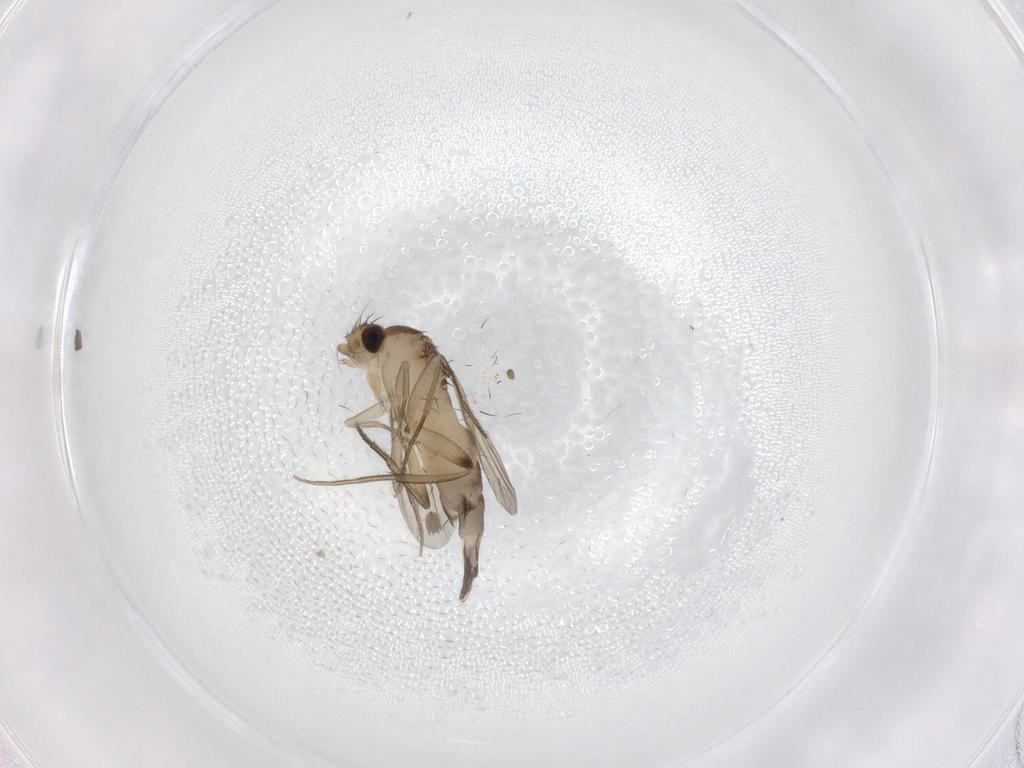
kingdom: Animalia
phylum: Arthropoda
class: Insecta
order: Diptera
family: Phoridae
